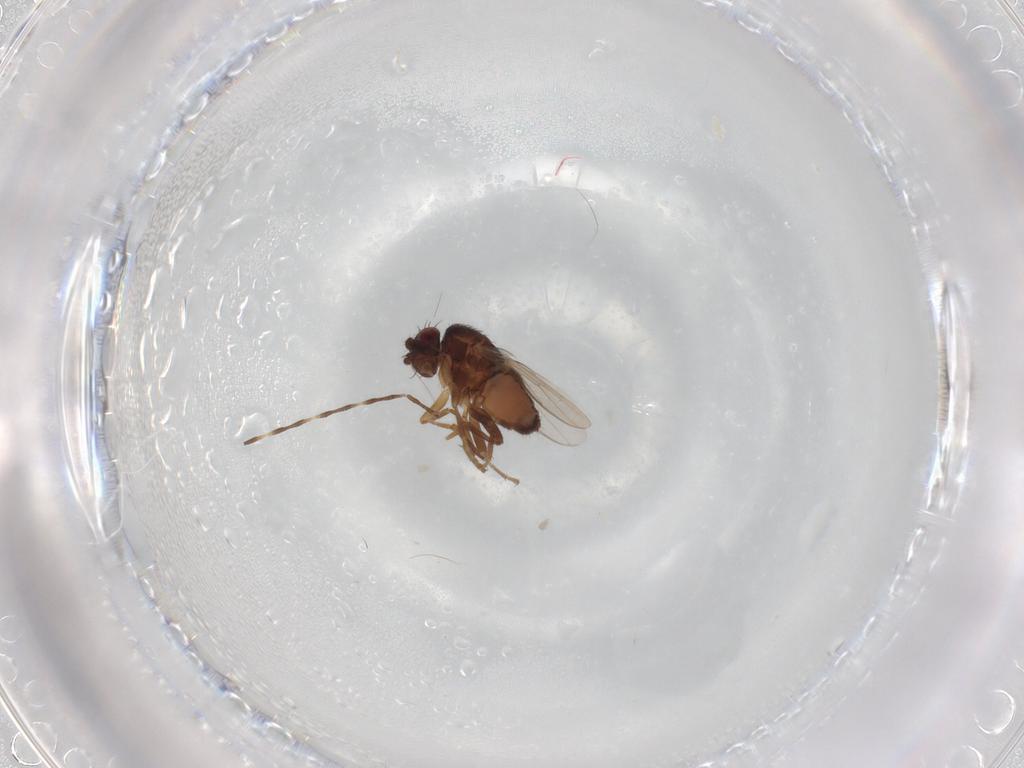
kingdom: Animalia
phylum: Arthropoda
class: Insecta
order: Diptera
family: Sphaeroceridae
